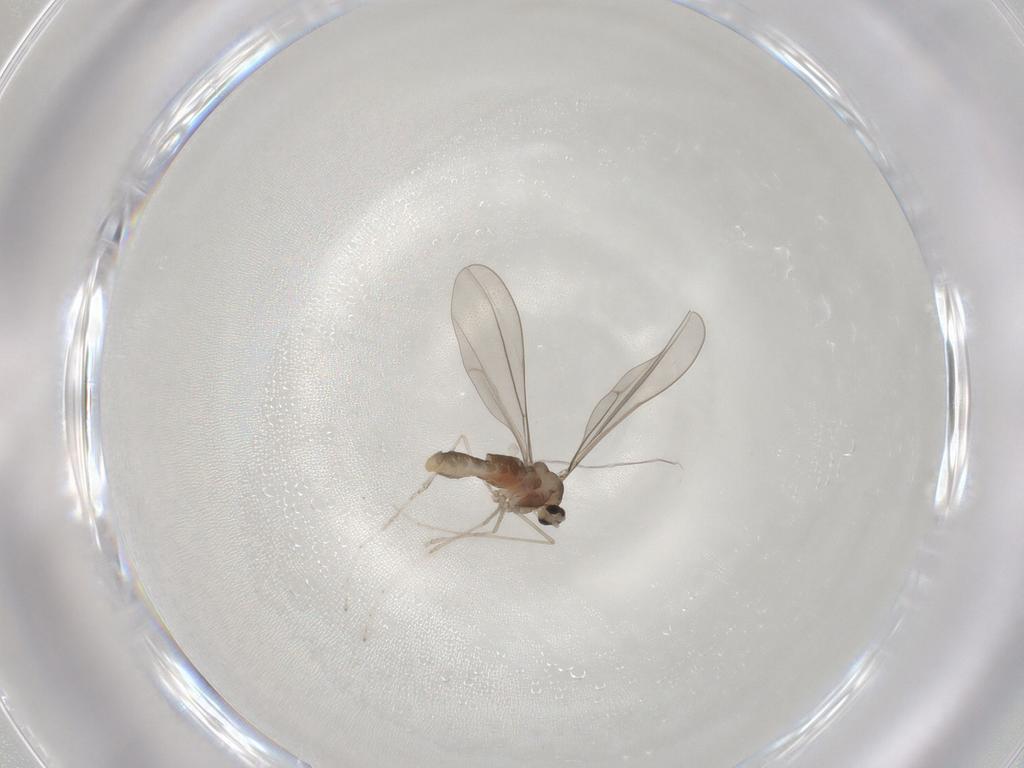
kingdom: Animalia
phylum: Arthropoda
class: Insecta
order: Diptera
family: Cecidomyiidae
